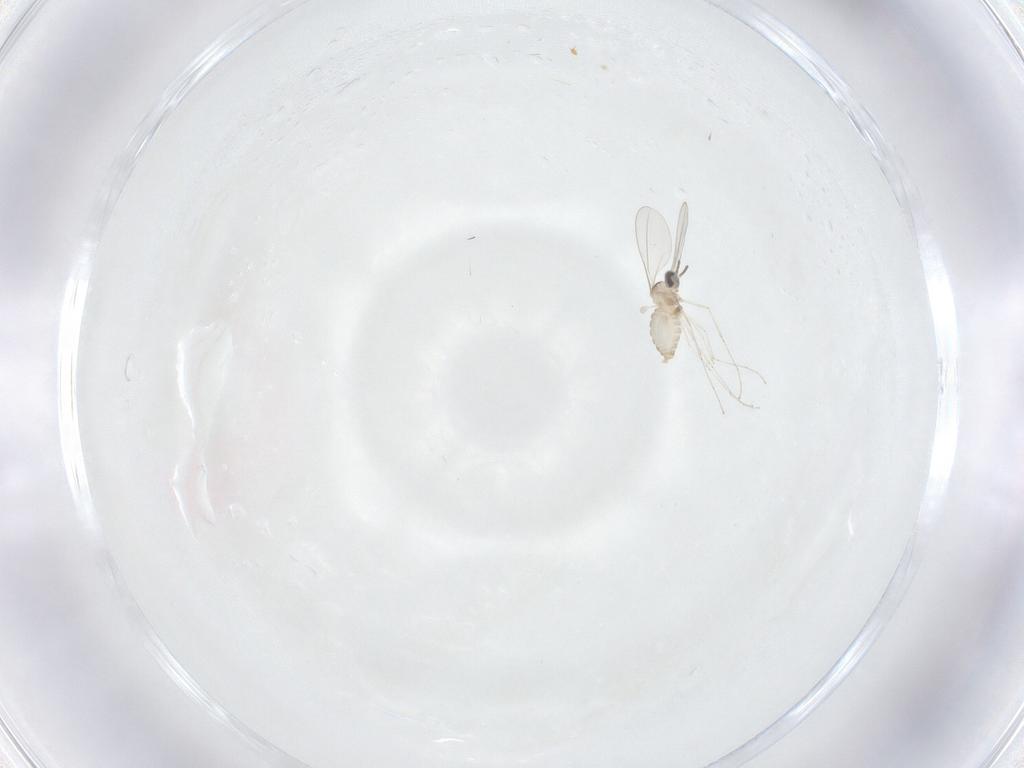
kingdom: Animalia
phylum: Arthropoda
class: Insecta
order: Diptera
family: Cecidomyiidae
